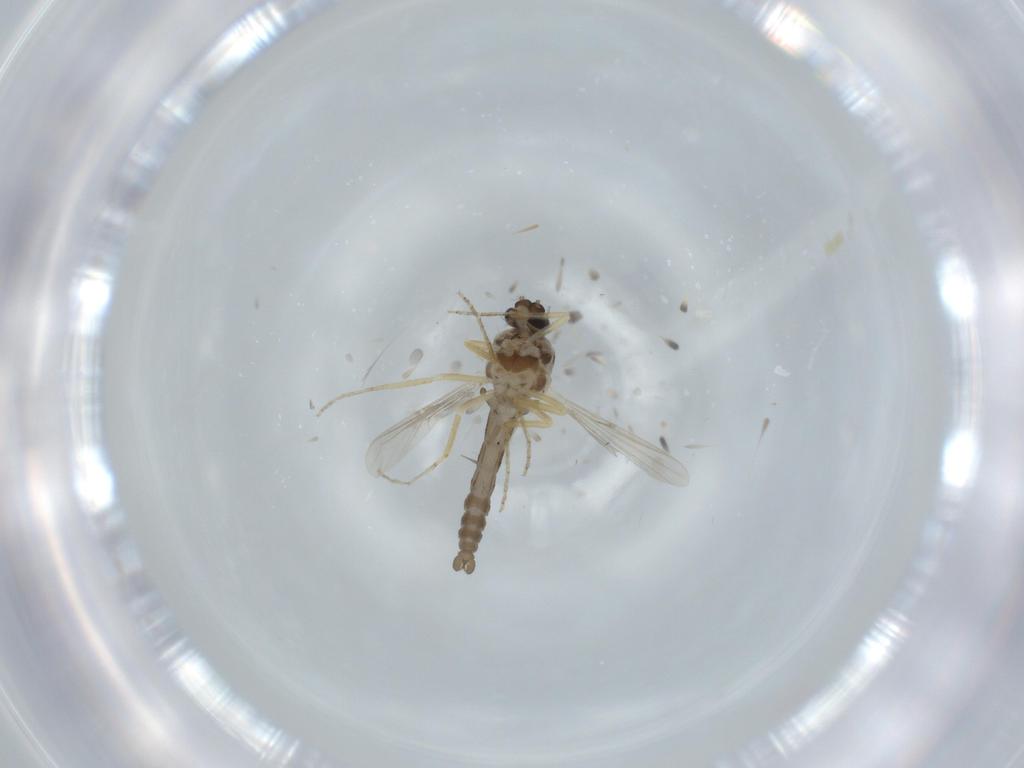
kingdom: Animalia
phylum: Arthropoda
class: Insecta
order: Diptera
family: Ceratopogonidae
